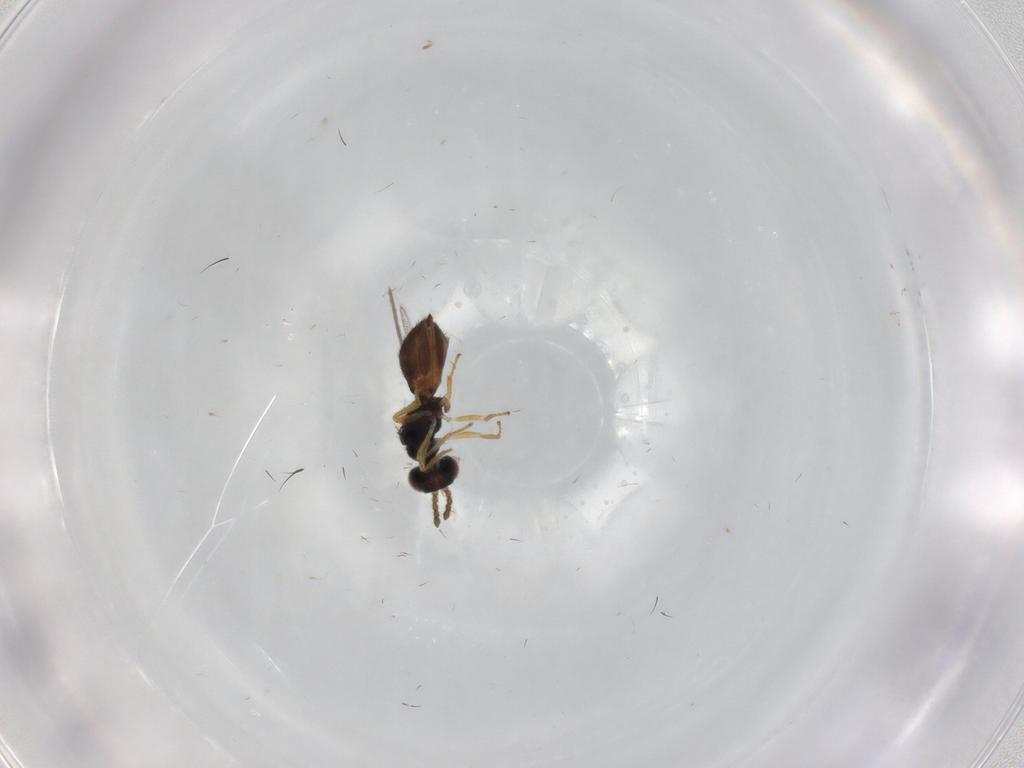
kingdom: Animalia
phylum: Arthropoda
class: Insecta
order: Hymenoptera
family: Eulophidae
